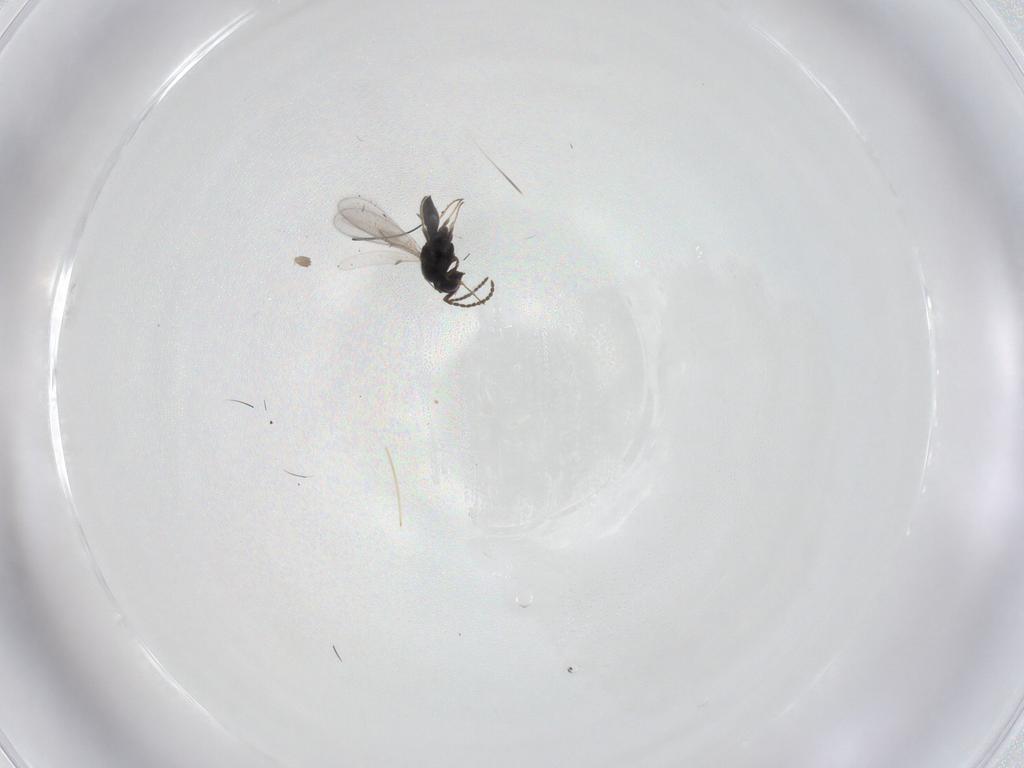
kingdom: Animalia
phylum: Arthropoda
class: Insecta
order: Hymenoptera
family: Scelionidae
